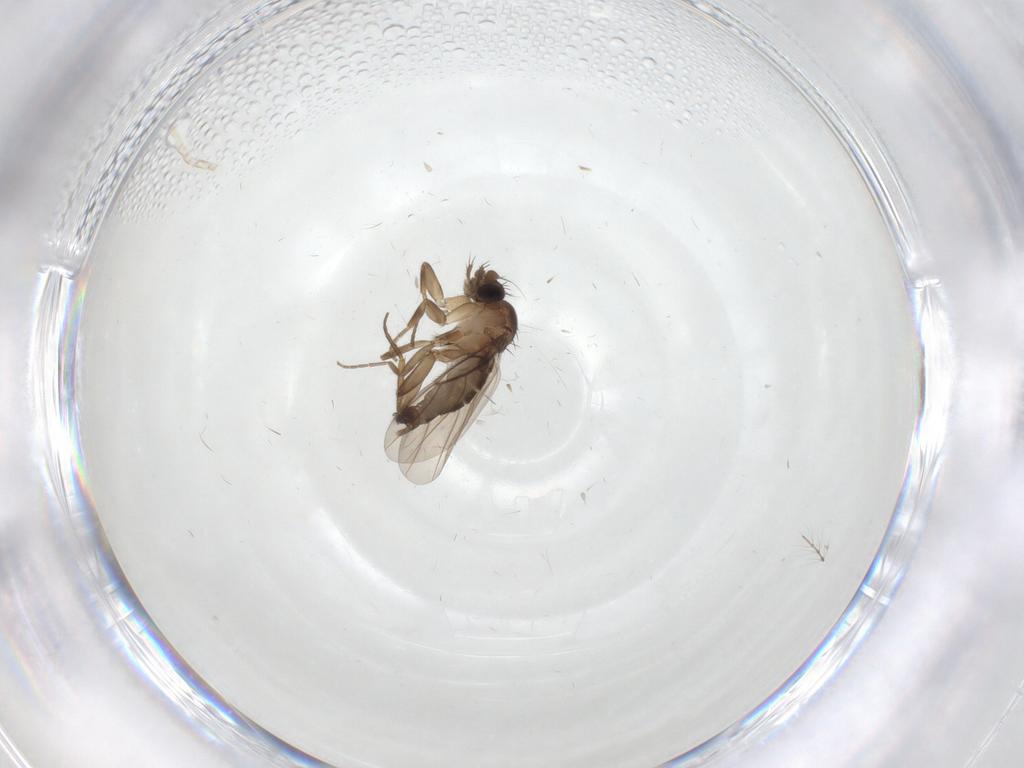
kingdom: Animalia
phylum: Arthropoda
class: Insecta
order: Diptera
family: Phoridae
